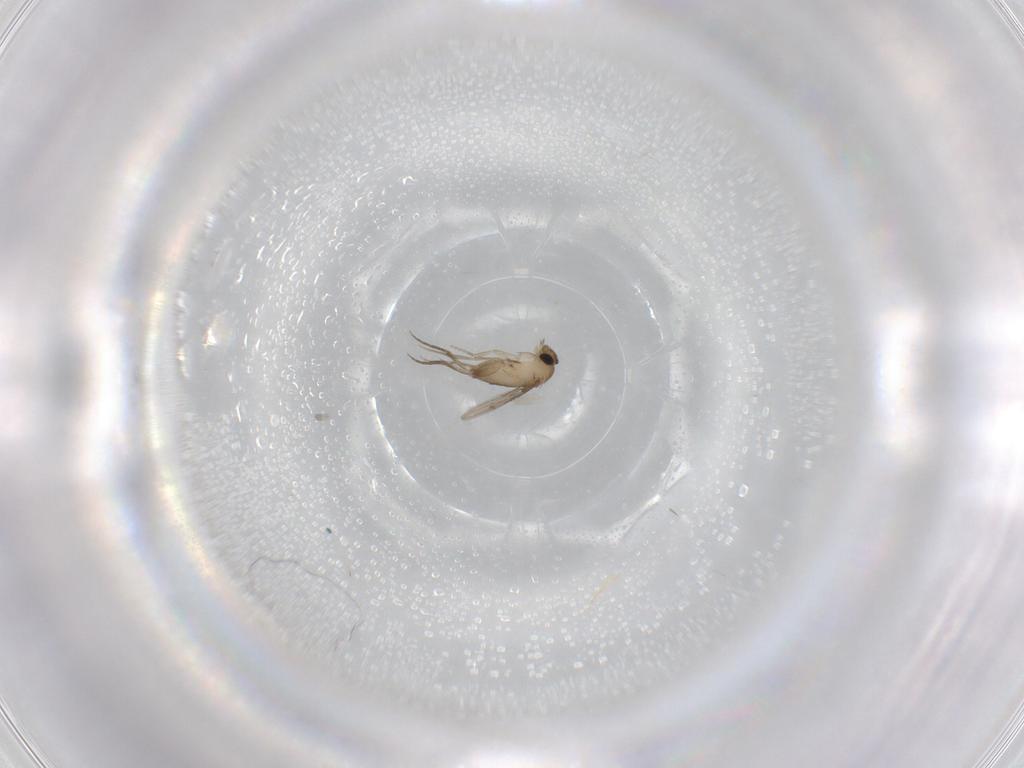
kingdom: Animalia
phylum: Arthropoda
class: Insecta
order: Diptera
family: Phoridae
